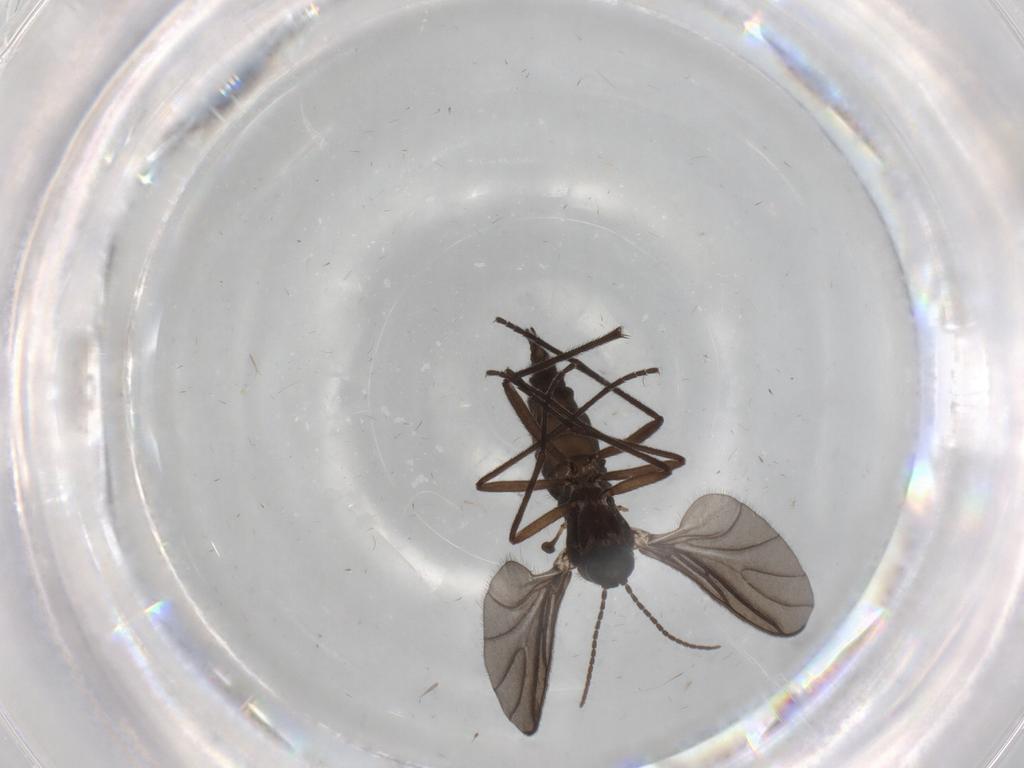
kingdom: Animalia
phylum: Arthropoda
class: Insecta
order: Diptera
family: Sciaridae
